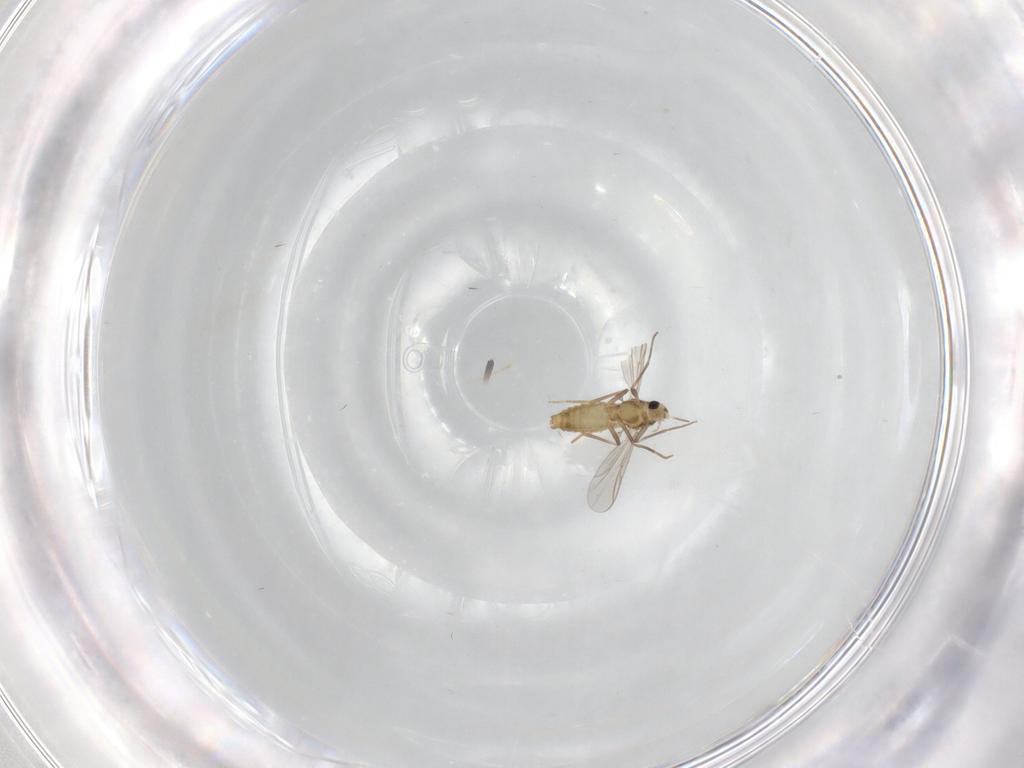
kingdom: Animalia
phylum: Arthropoda
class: Insecta
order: Diptera
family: Chironomidae
